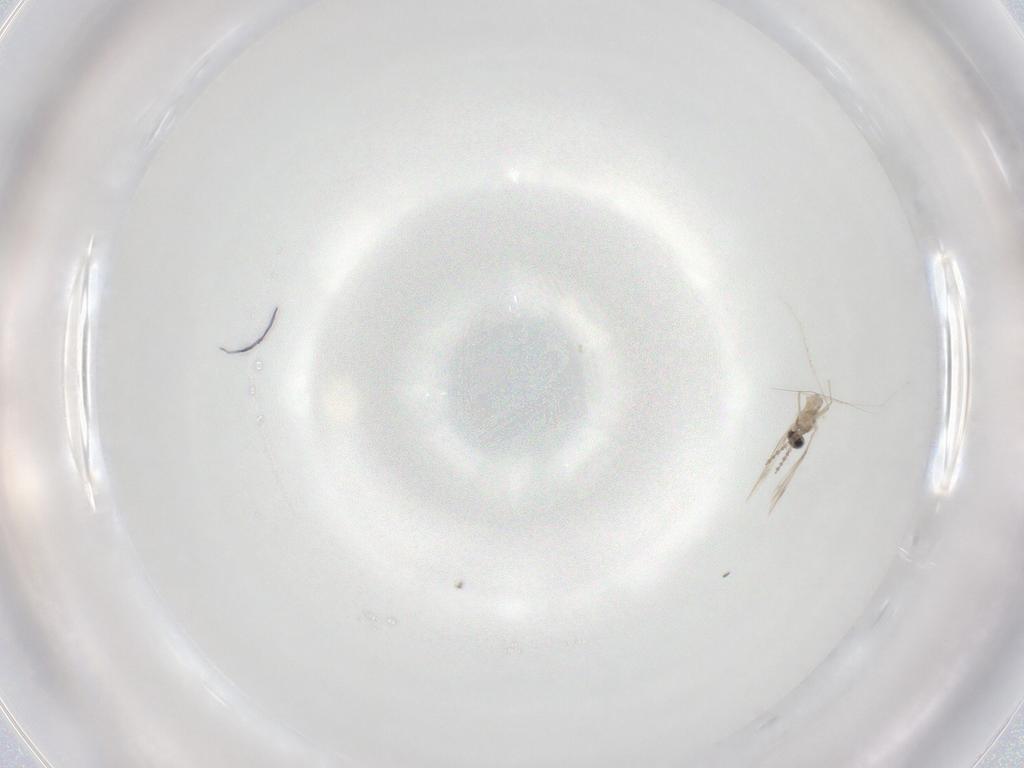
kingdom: Animalia
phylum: Arthropoda
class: Insecta
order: Diptera
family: Cecidomyiidae
